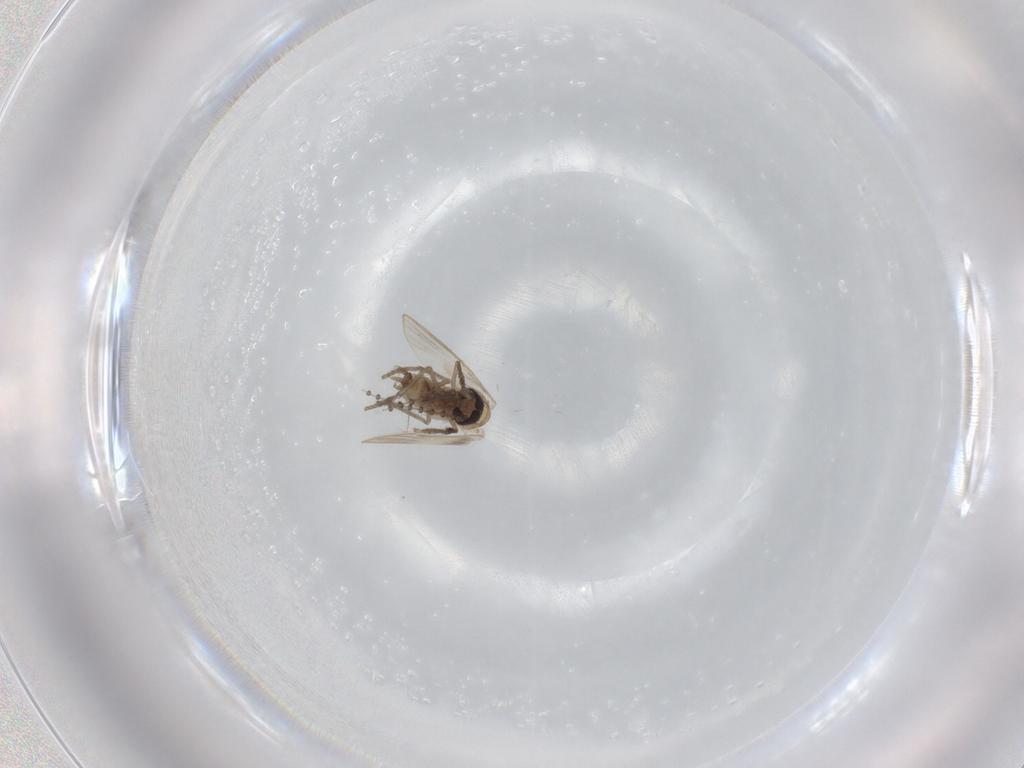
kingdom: Animalia
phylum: Arthropoda
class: Insecta
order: Diptera
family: Psychodidae
